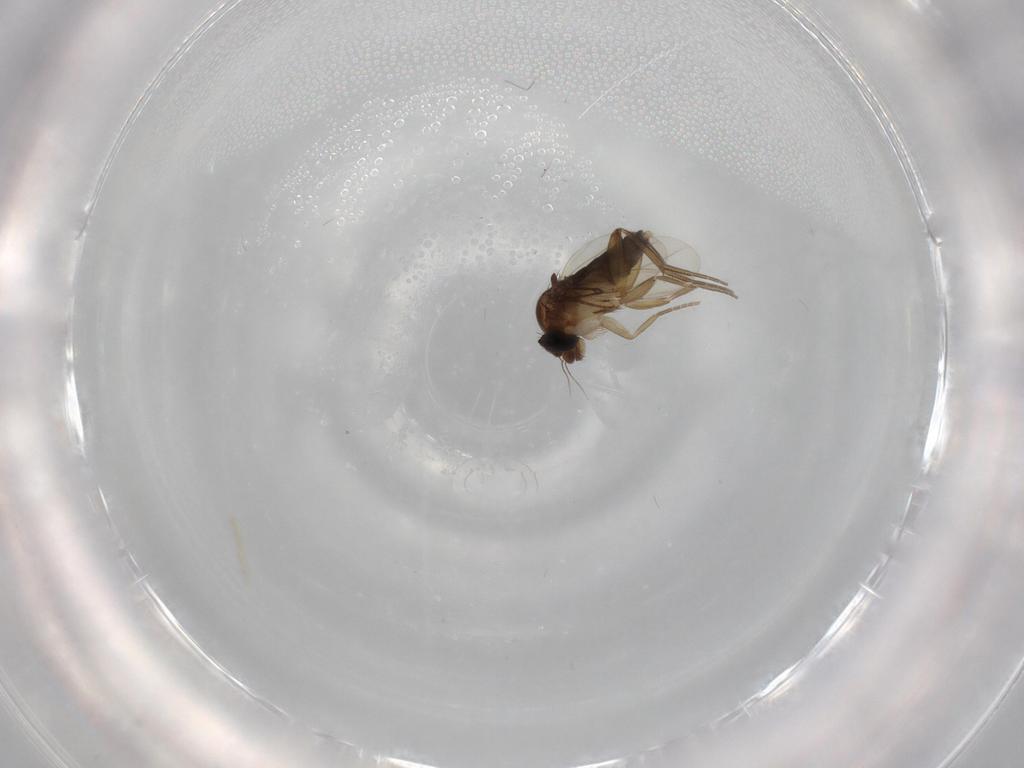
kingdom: Animalia
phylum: Arthropoda
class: Insecta
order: Diptera
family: Phoridae
